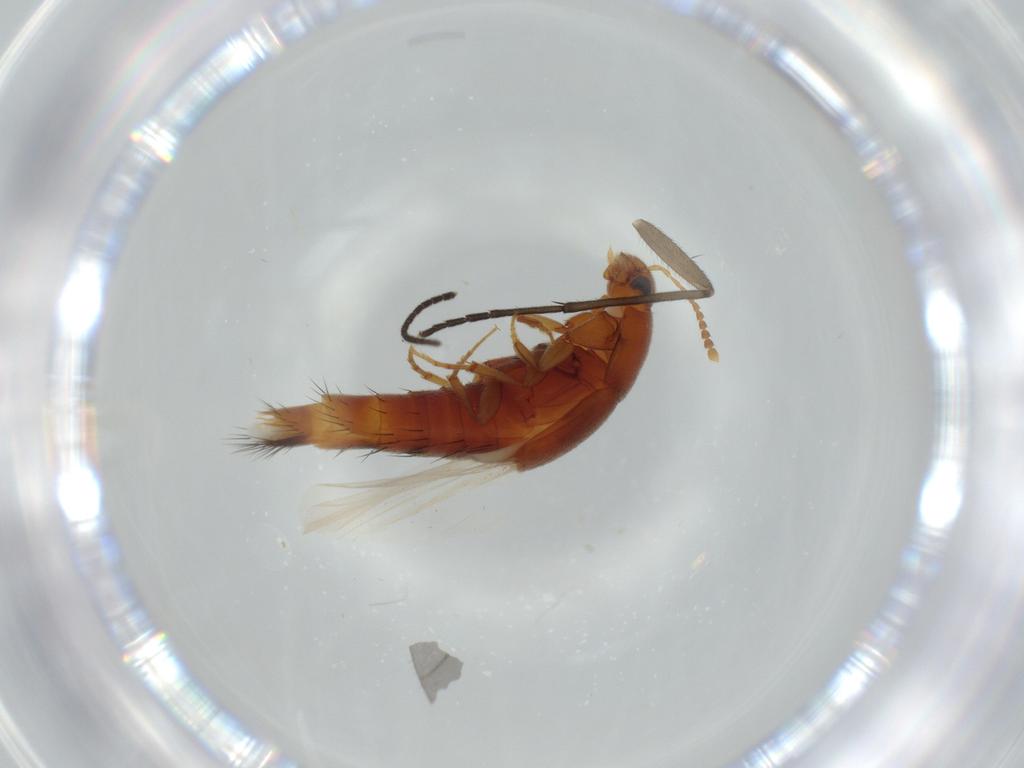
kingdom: Animalia
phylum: Arthropoda
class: Insecta
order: Coleoptera
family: Staphylinidae
